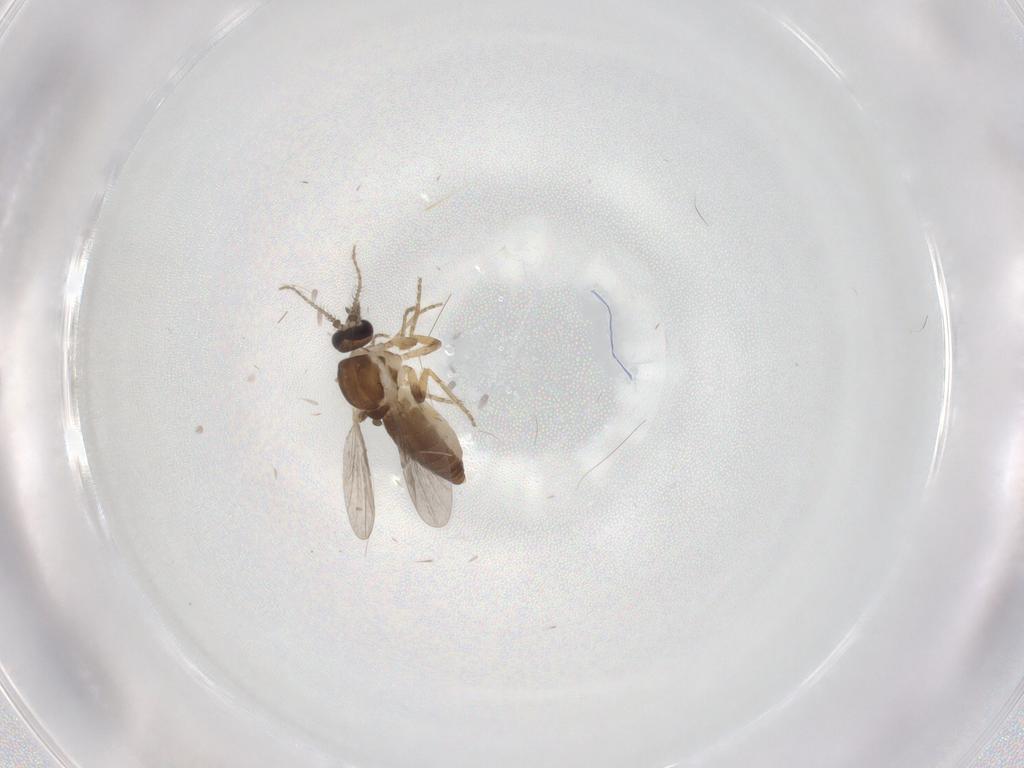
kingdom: Animalia
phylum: Arthropoda
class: Insecta
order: Diptera
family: Ceratopogonidae
